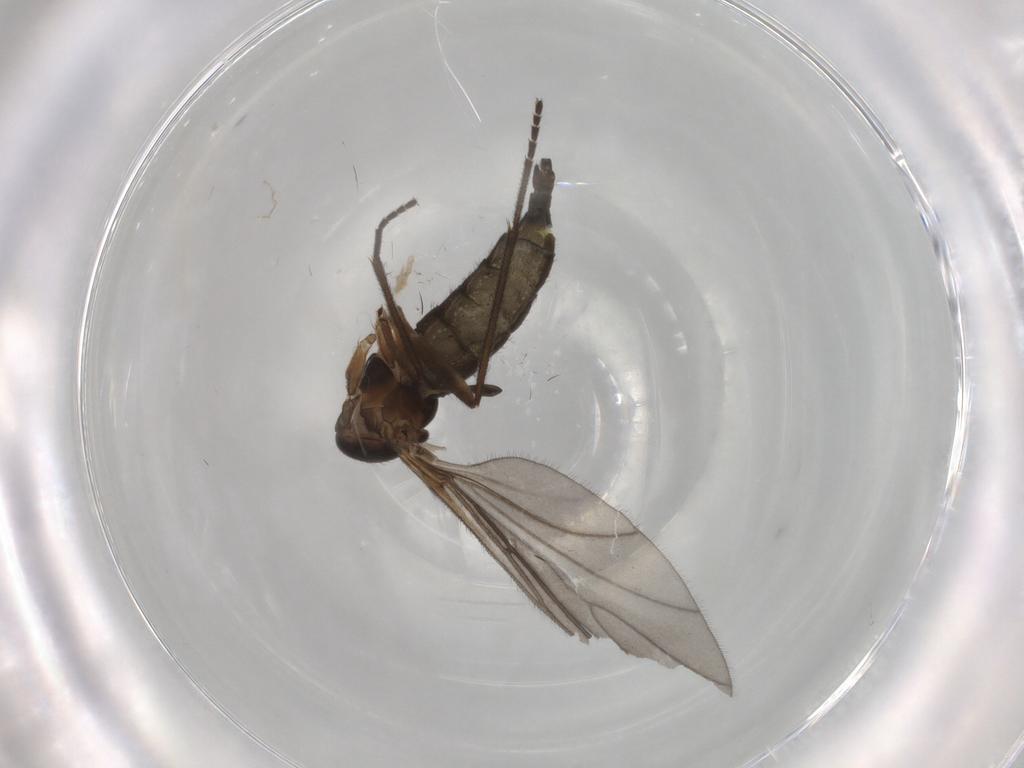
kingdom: Animalia
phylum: Arthropoda
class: Insecta
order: Diptera
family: Sciaridae
